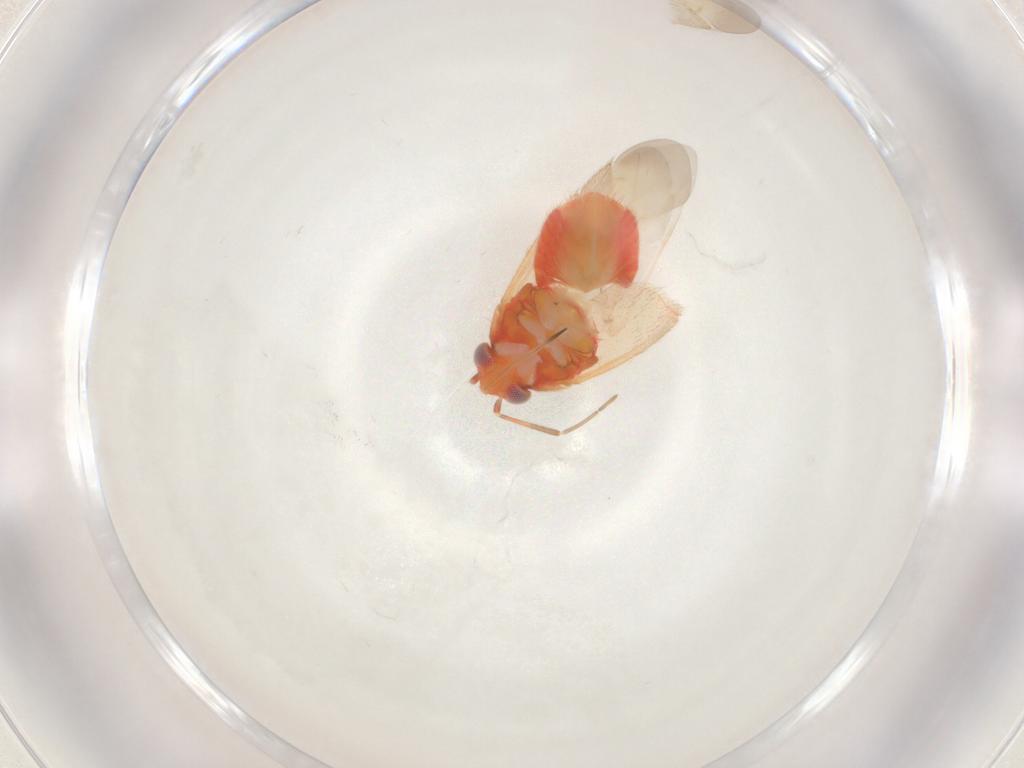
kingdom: Animalia
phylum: Arthropoda
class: Insecta
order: Hemiptera
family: Miridae
